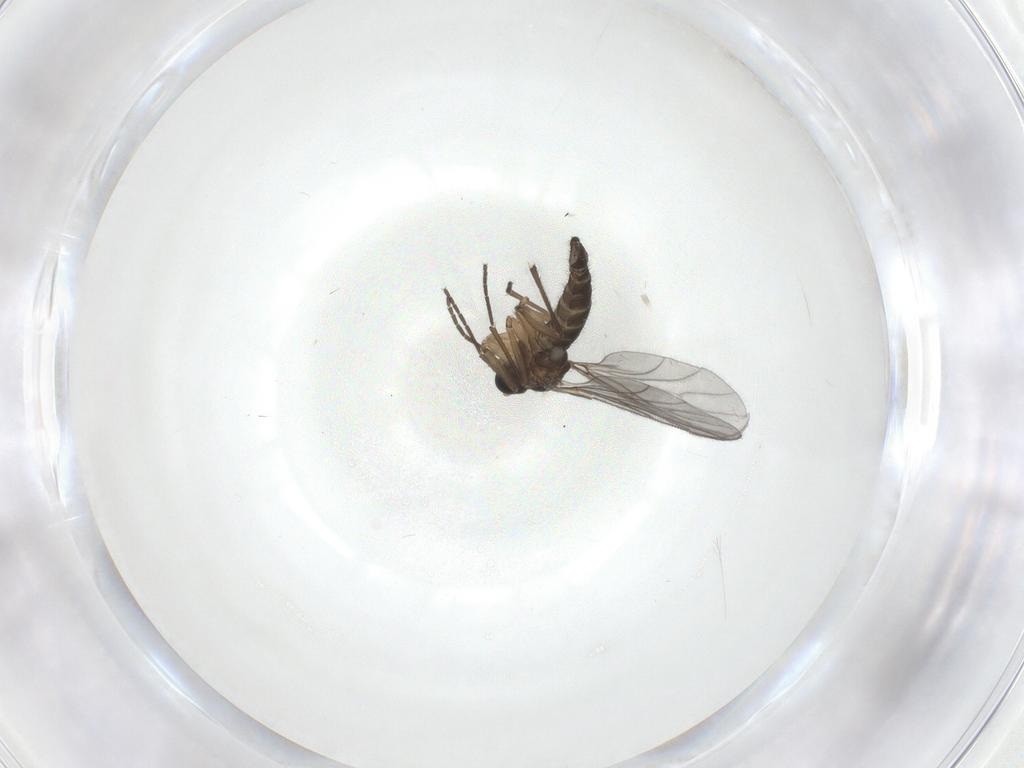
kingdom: Animalia
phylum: Arthropoda
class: Insecta
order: Diptera
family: Sciaridae
